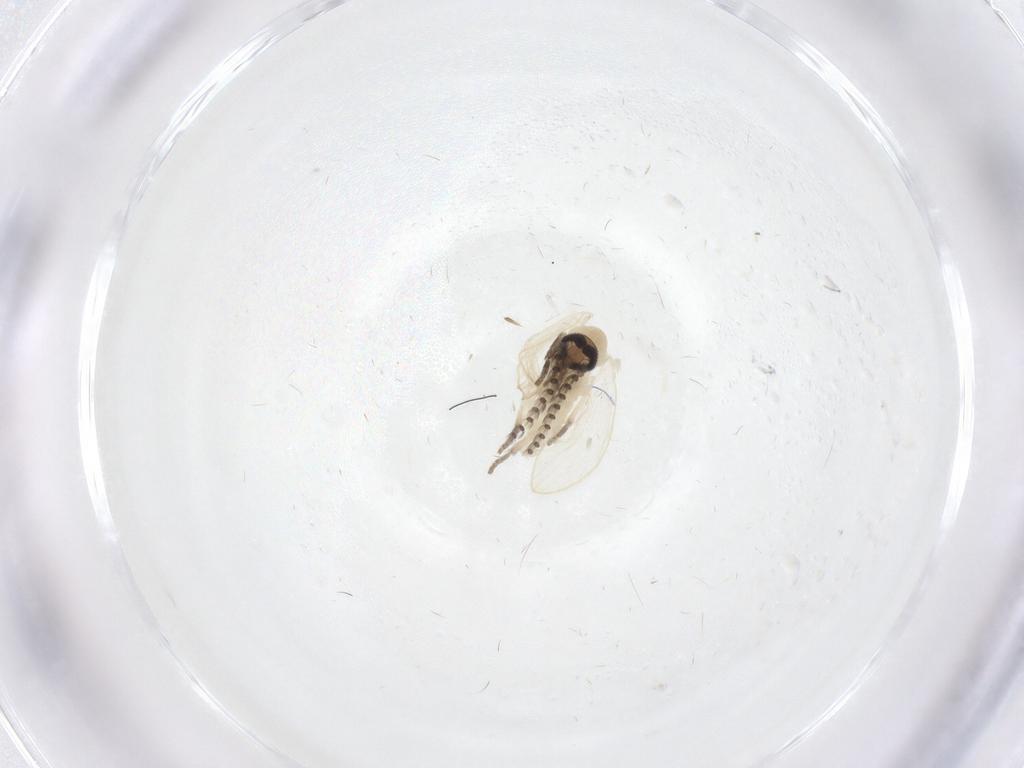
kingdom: Animalia
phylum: Arthropoda
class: Insecta
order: Diptera
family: Psychodidae
